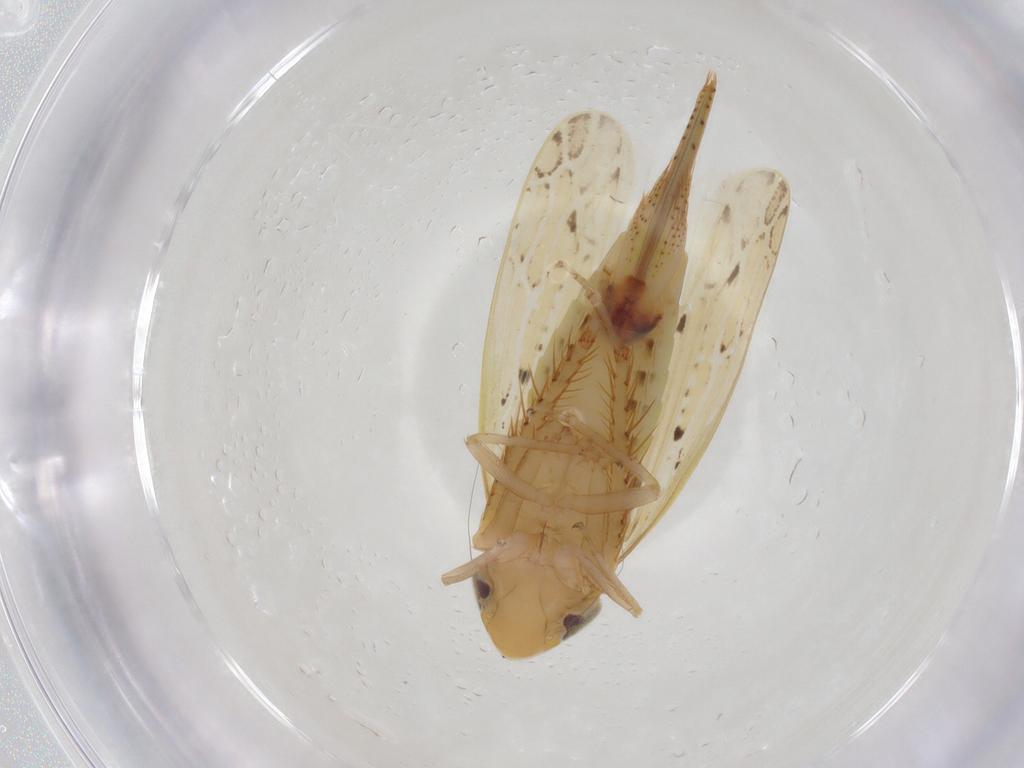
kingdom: Animalia
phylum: Arthropoda
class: Insecta
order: Hemiptera
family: Cicadellidae
